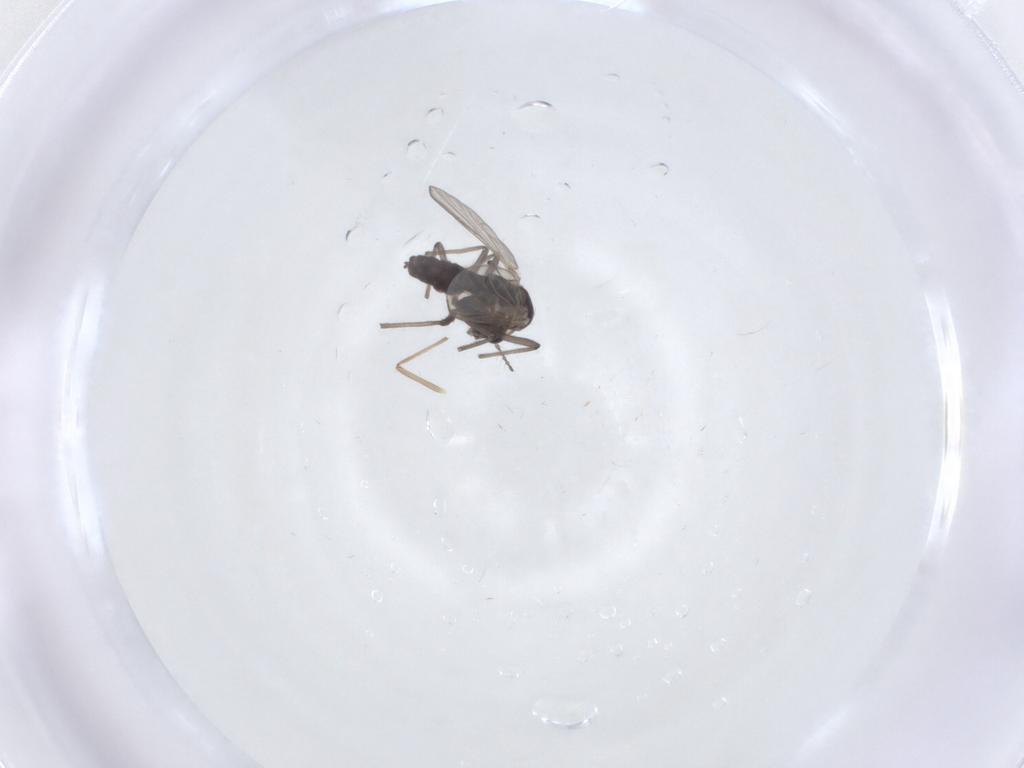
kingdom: Animalia
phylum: Arthropoda
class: Insecta
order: Diptera
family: Chironomidae
